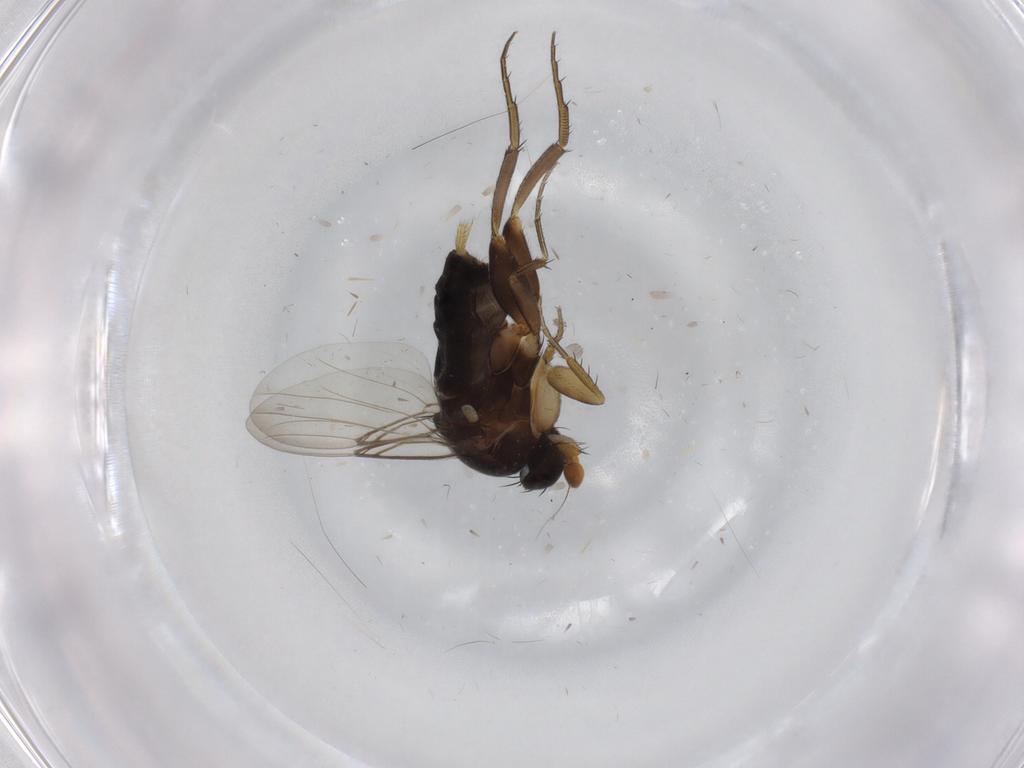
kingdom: Animalia
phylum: Arthropoda
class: Insecta
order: Diptera
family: Phoridae
